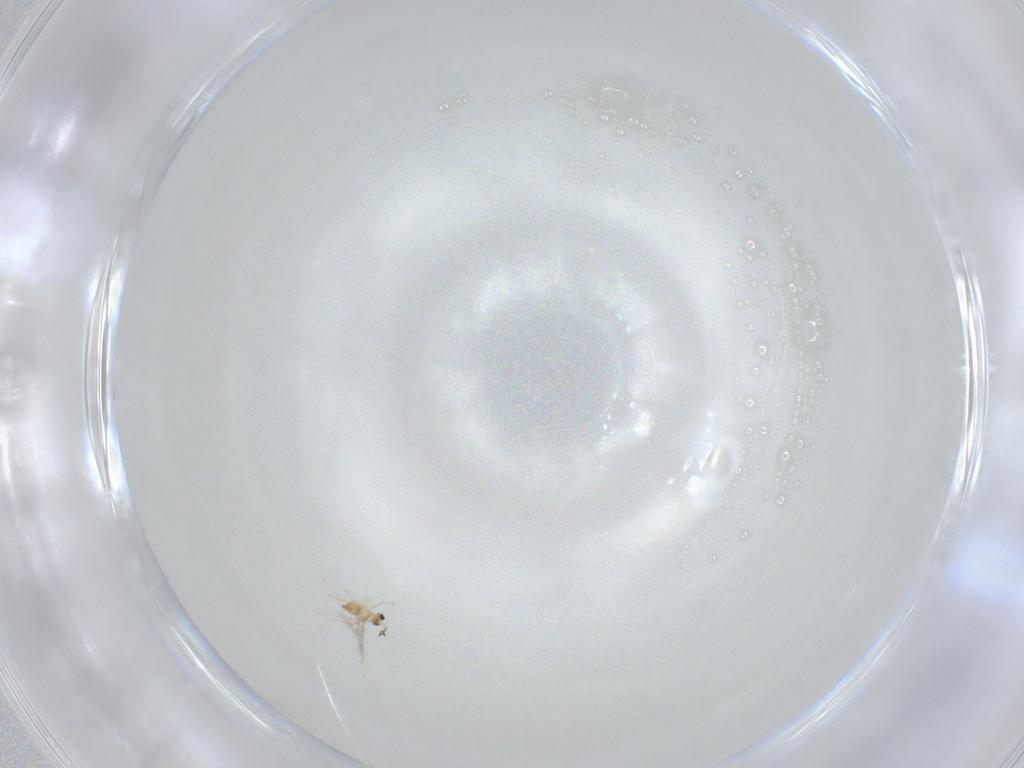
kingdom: Animalia
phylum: Arthropoda
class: Insecta
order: Hymenoptera
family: Mymaridae
